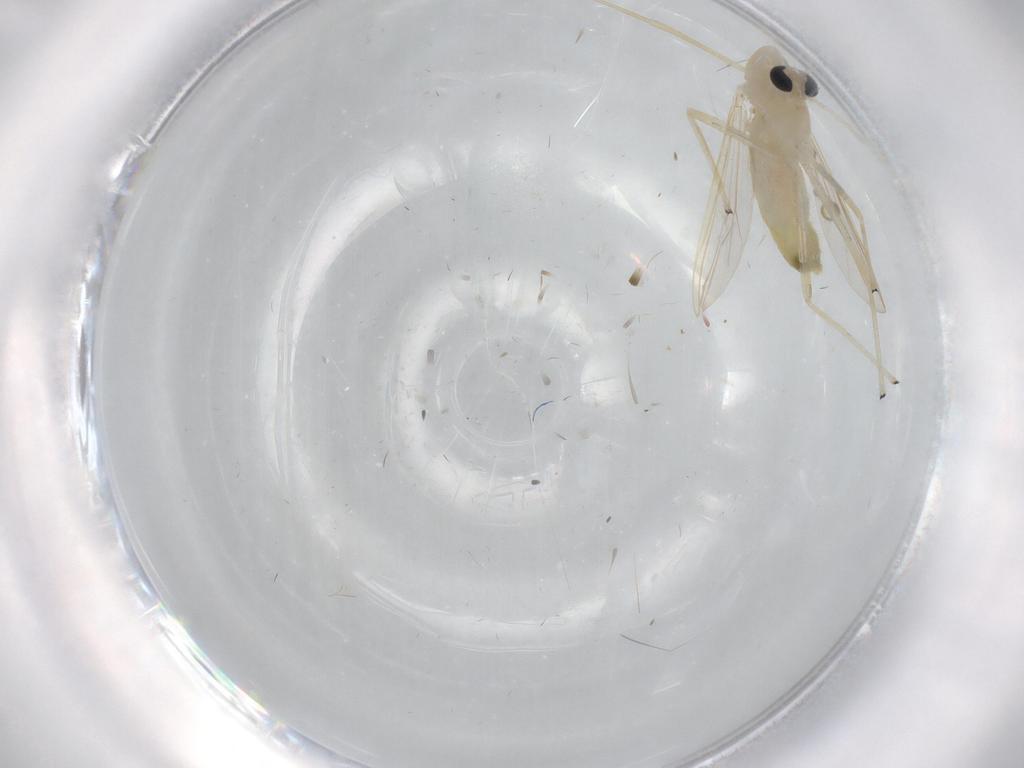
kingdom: Animalia
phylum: Arthropoda
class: Insecta
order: Diptera
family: Chironomidae
